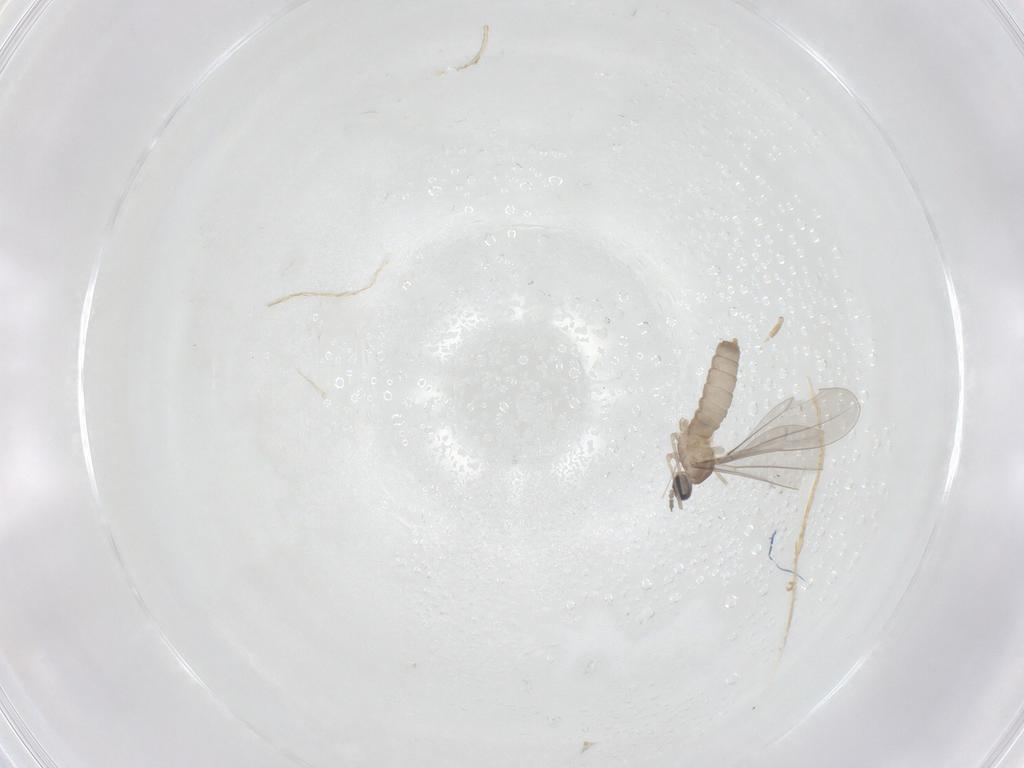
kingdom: Animalia
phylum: Arthropoda
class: Insecta
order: Diptera
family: Cecidomyiidae
